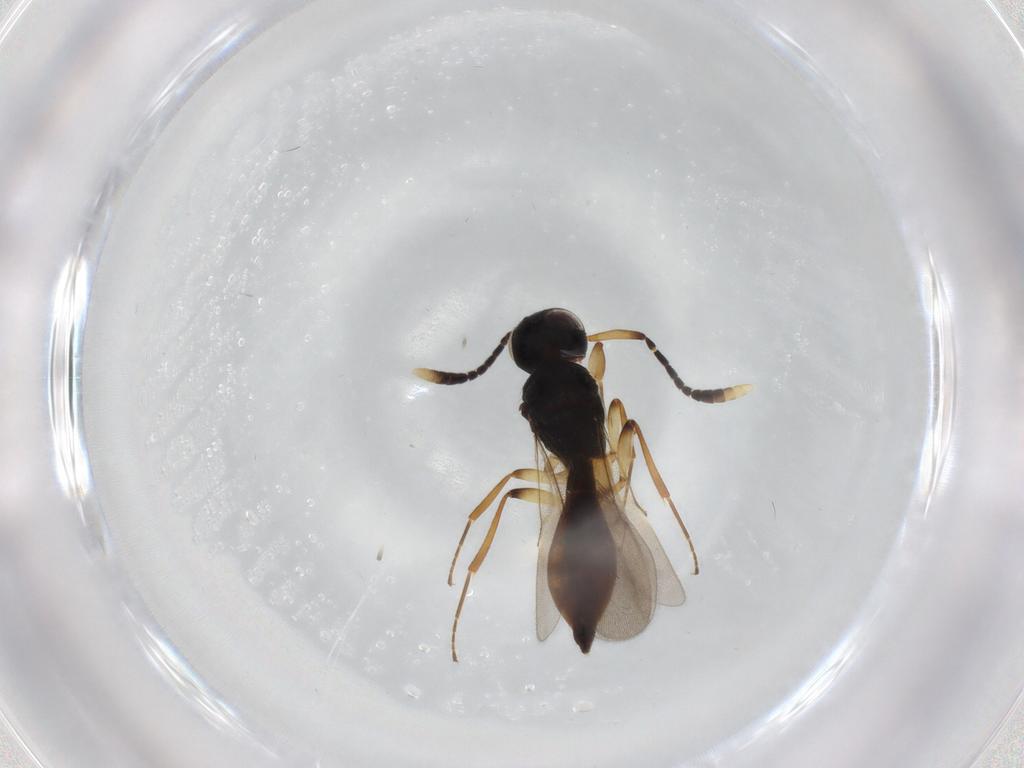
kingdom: Animalia
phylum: Arthropoda
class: Insecta
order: Hymenoptera
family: Scelionidae
